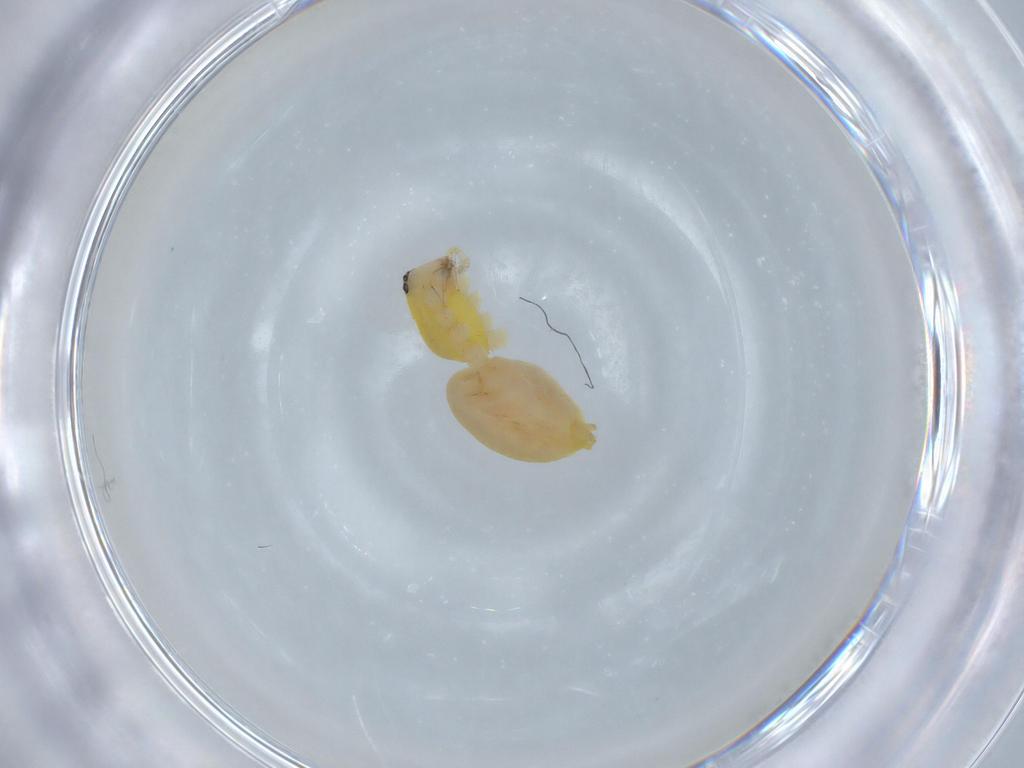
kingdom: Animalia
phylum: Arthropoda
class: Arachnida
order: Araneae
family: Anyphaenidae
